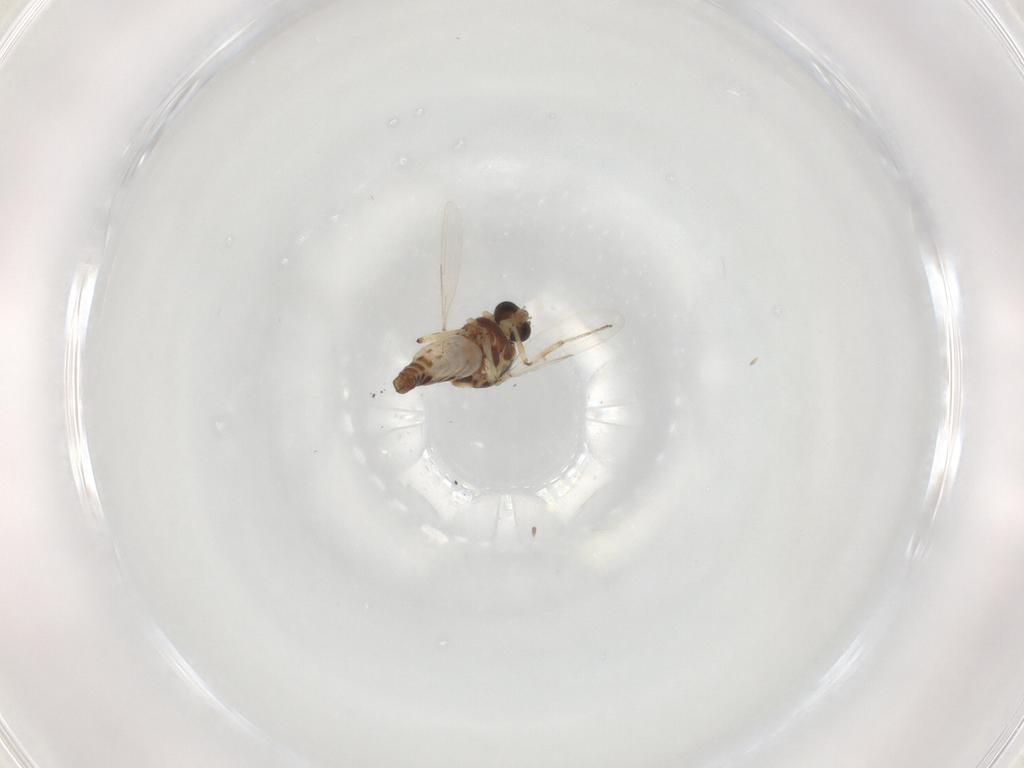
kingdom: Animalia
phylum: Arthropoda
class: Insecta
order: Diptera
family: Ceratopogonidae
